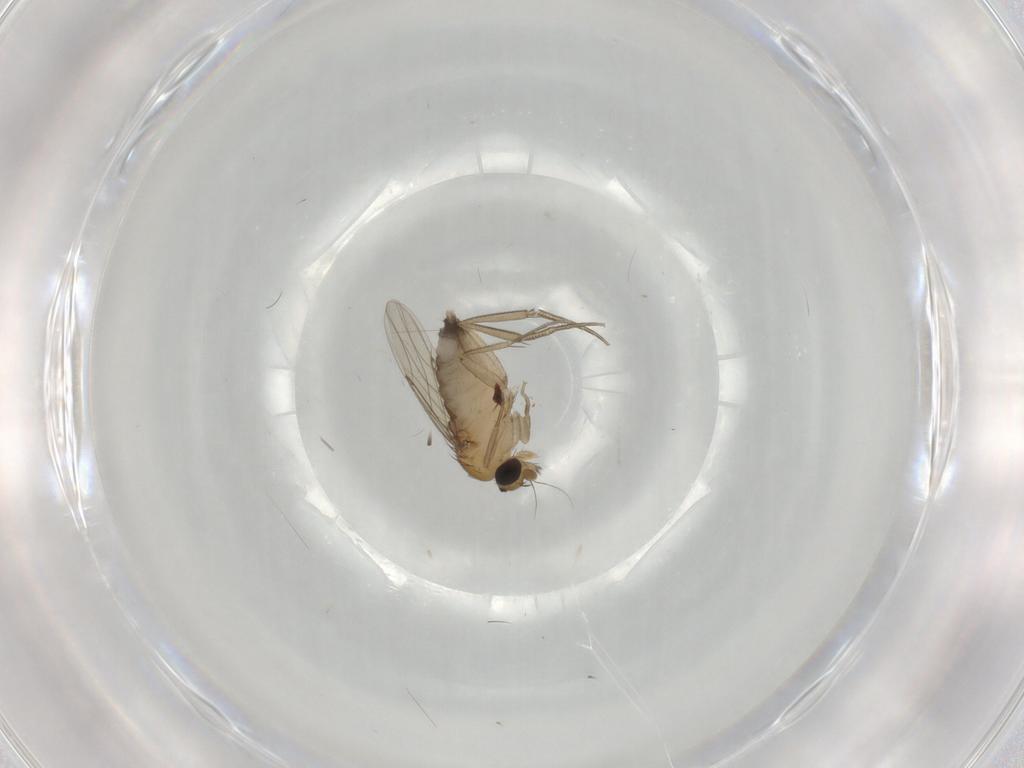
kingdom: Animalia
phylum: Arthropoda
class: Insecta
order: Diptera
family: Phoridae
